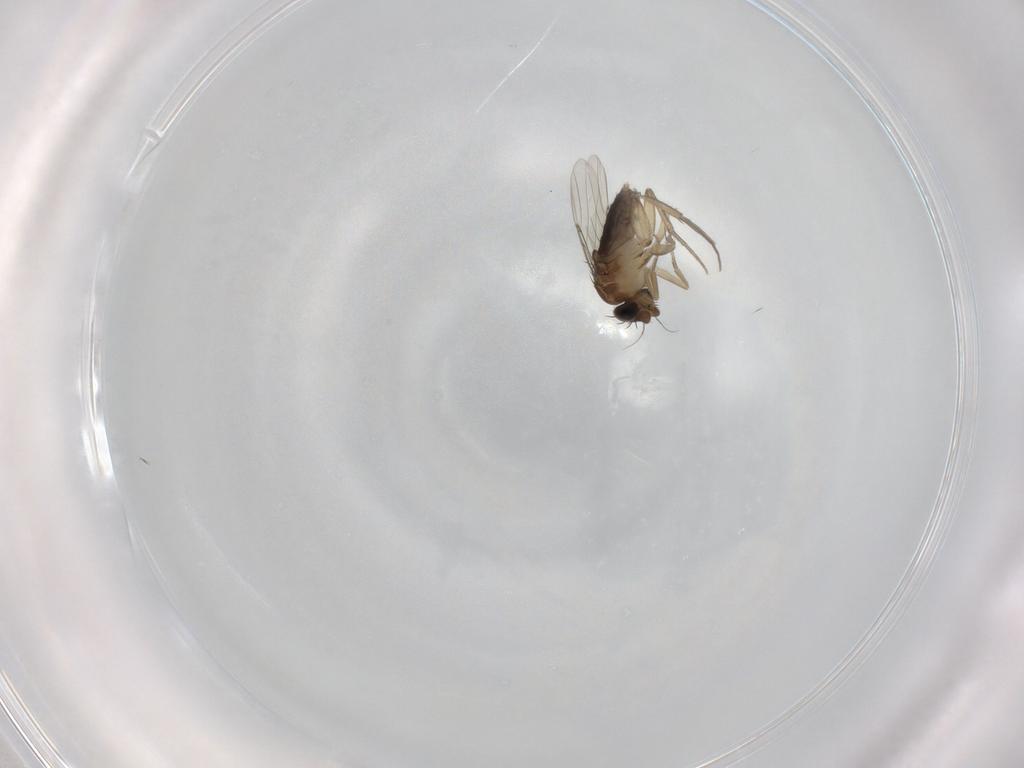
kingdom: Animalia
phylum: Arthropoda
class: Insecta
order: Diptera
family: Phoridae
